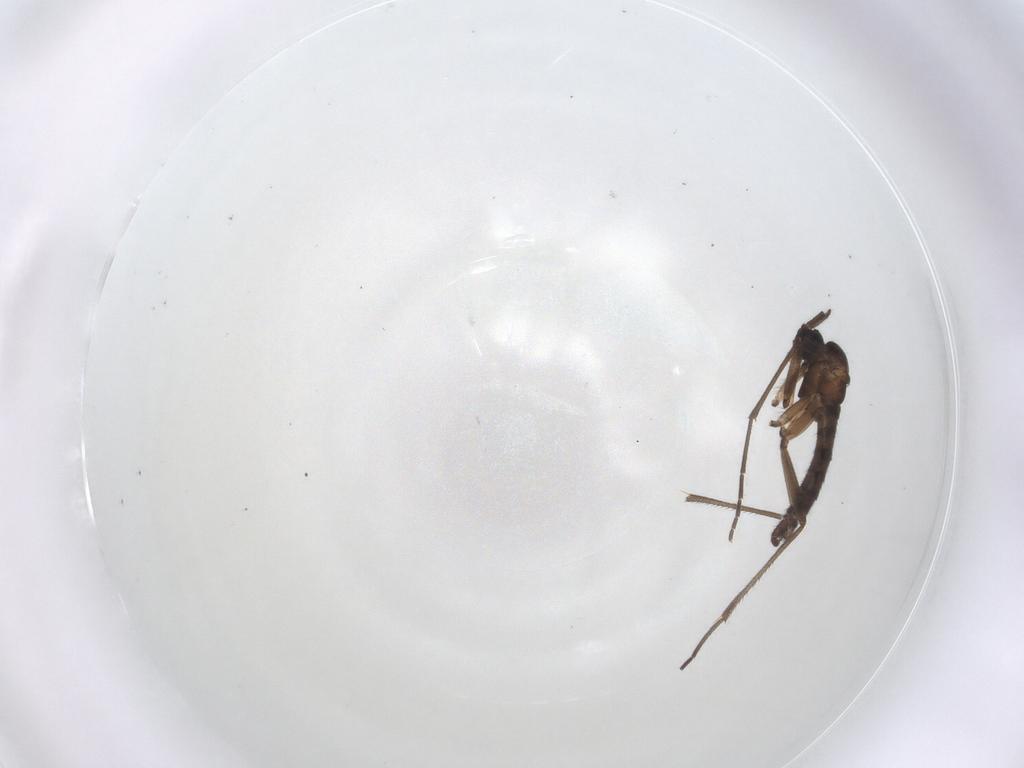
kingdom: Animalia
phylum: Arthropoda
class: Insecta
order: Diptera
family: Sciaridae
